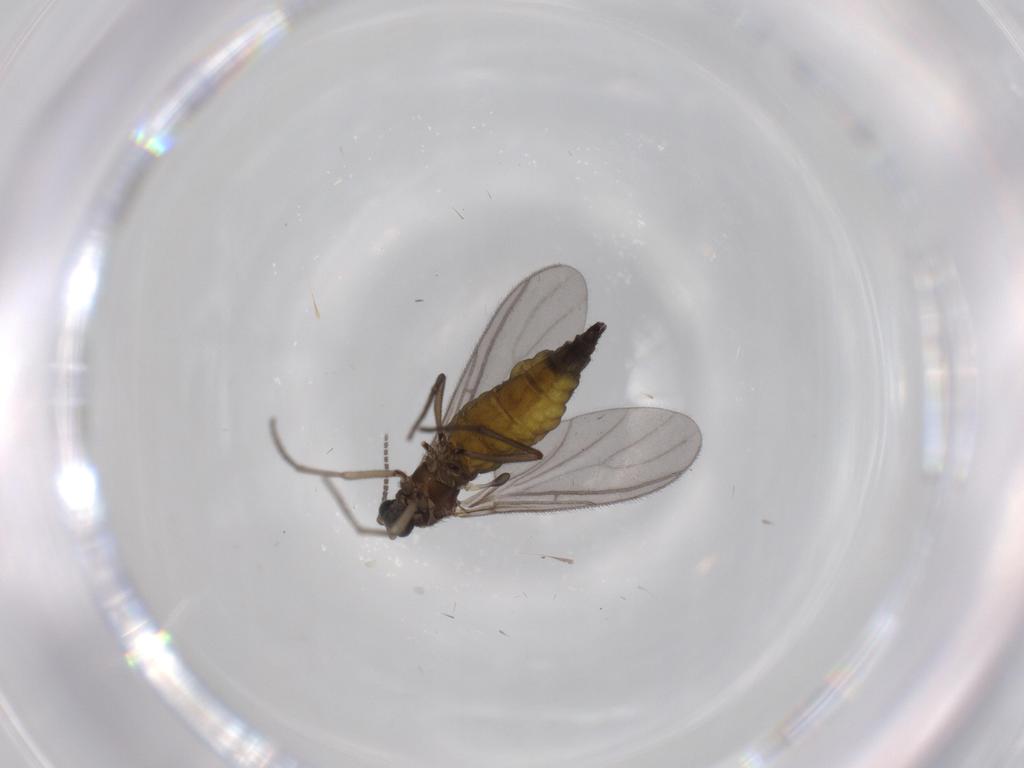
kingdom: Animalia
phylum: Arthropoda
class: Insecta
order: Diptera
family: Sciaridae
